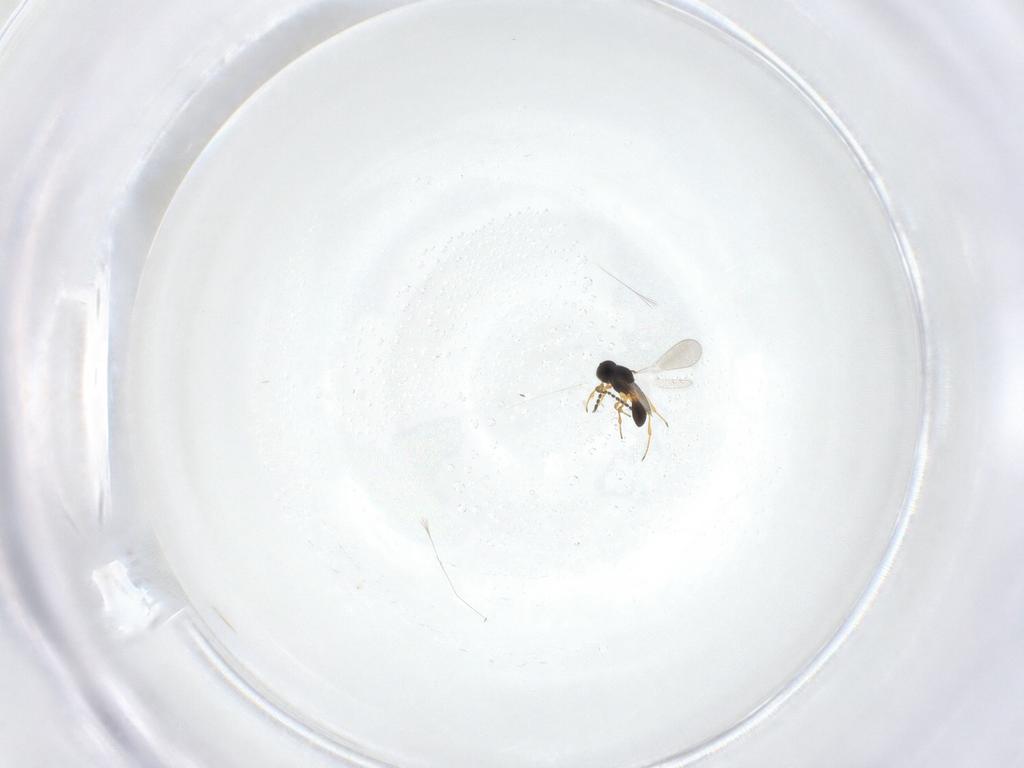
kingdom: Animalia
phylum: Arthropoda
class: Insecta
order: Hymenoptera
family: Platygastridae
